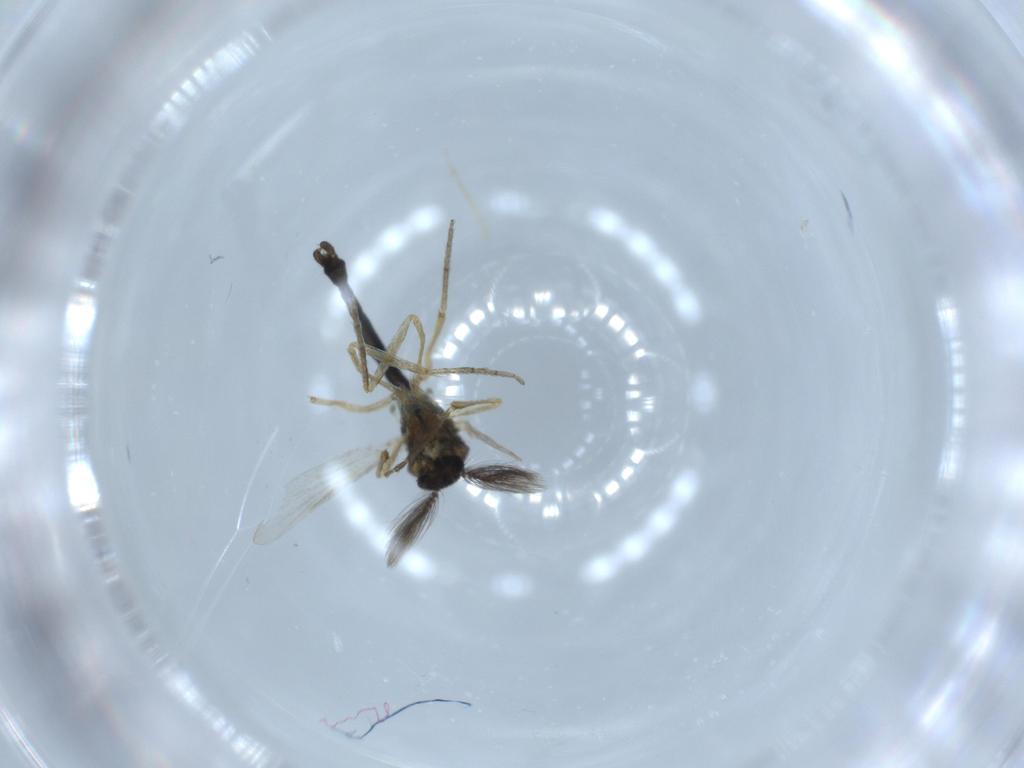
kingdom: Animalia
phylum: Arthropoda
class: Insecta
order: Diptera
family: Ceratopogonidae
